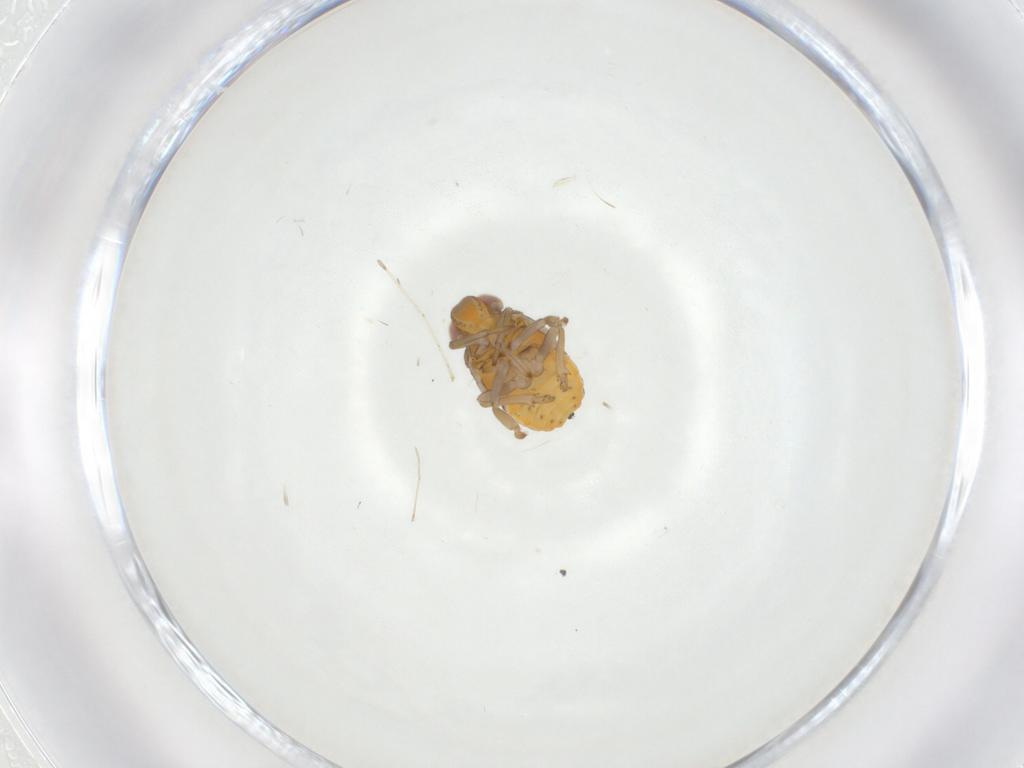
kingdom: Animalia
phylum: Arthropoda
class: Insecta
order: Hemiptera
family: Issidae
